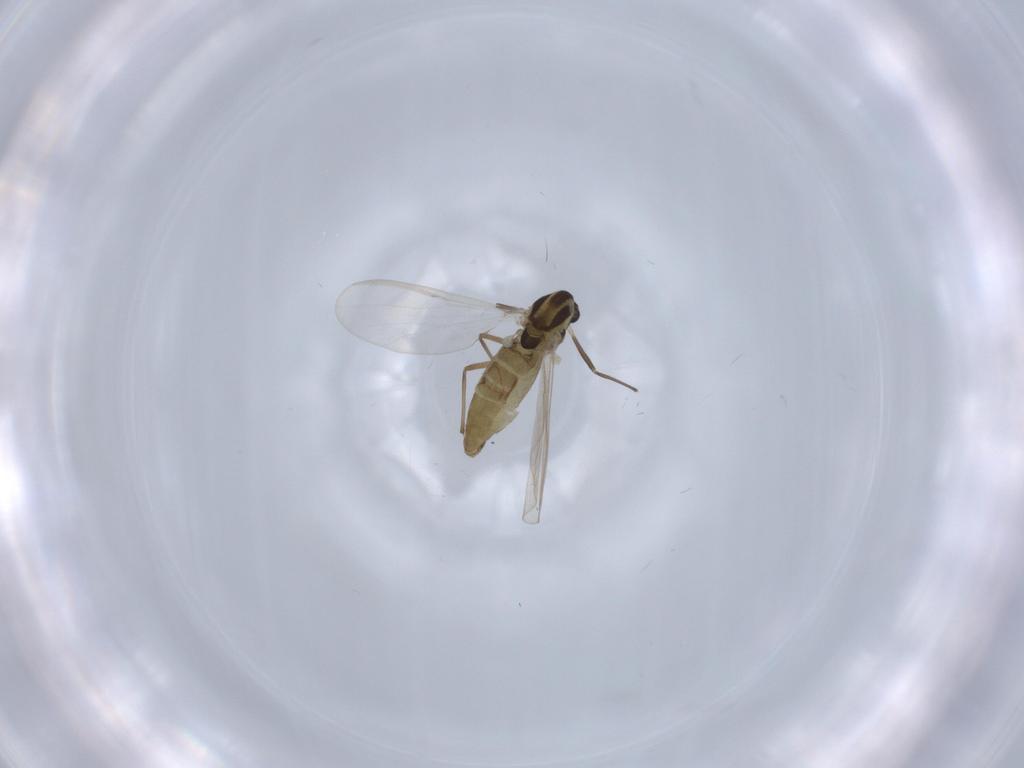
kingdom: Animalia
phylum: Arthropoda
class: Insecta
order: Diptera
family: Chironomidae
